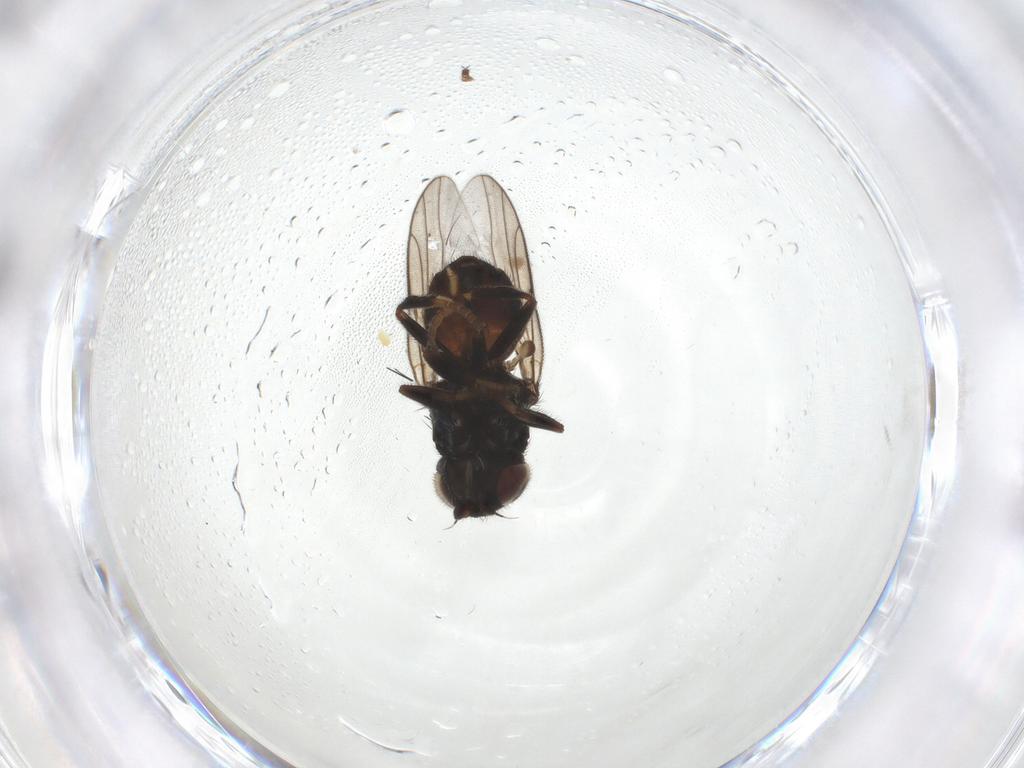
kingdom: Animalia
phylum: Arthropoda
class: Insecta
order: Diptera
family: Chloropidae
